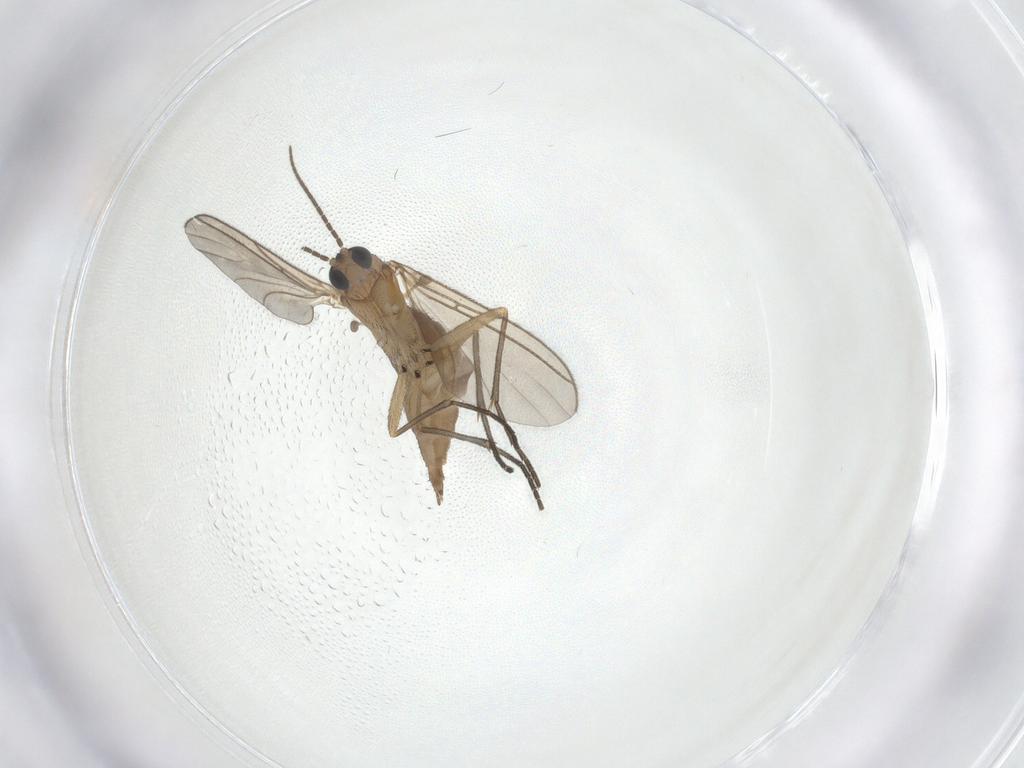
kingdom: Animalia
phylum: Arthropoda
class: Insecta
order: Diptera
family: Sciaridae
